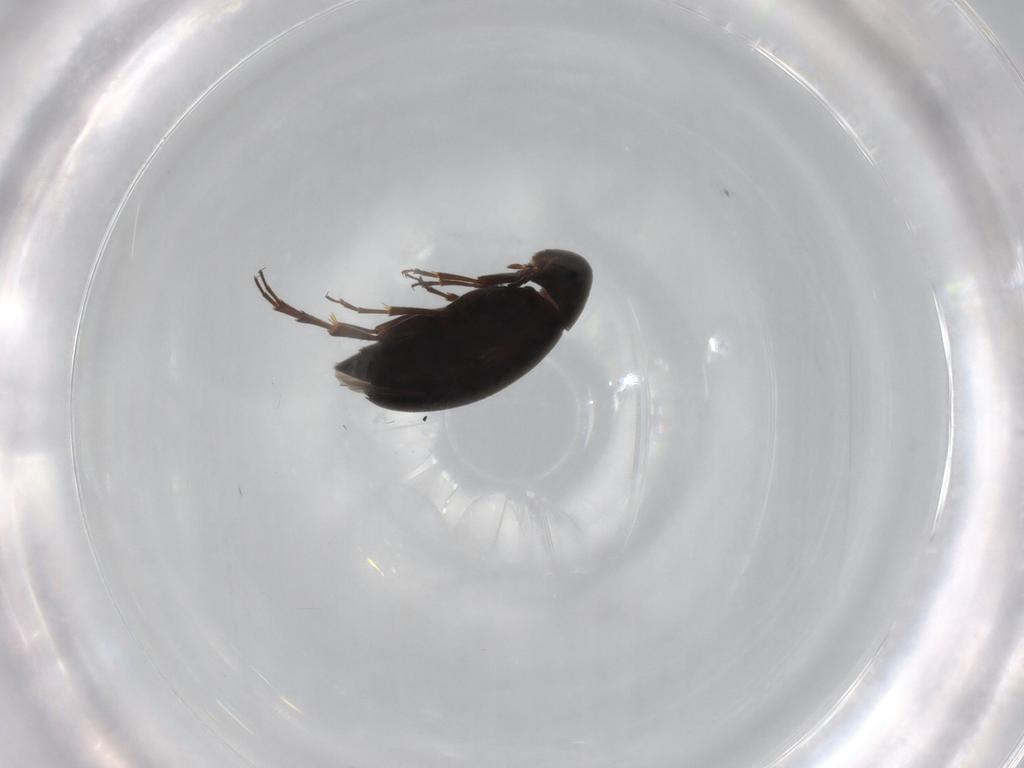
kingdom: Animalia
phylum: Arthropoda
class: Insecta
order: Coleoptera
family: Scraptiidae
